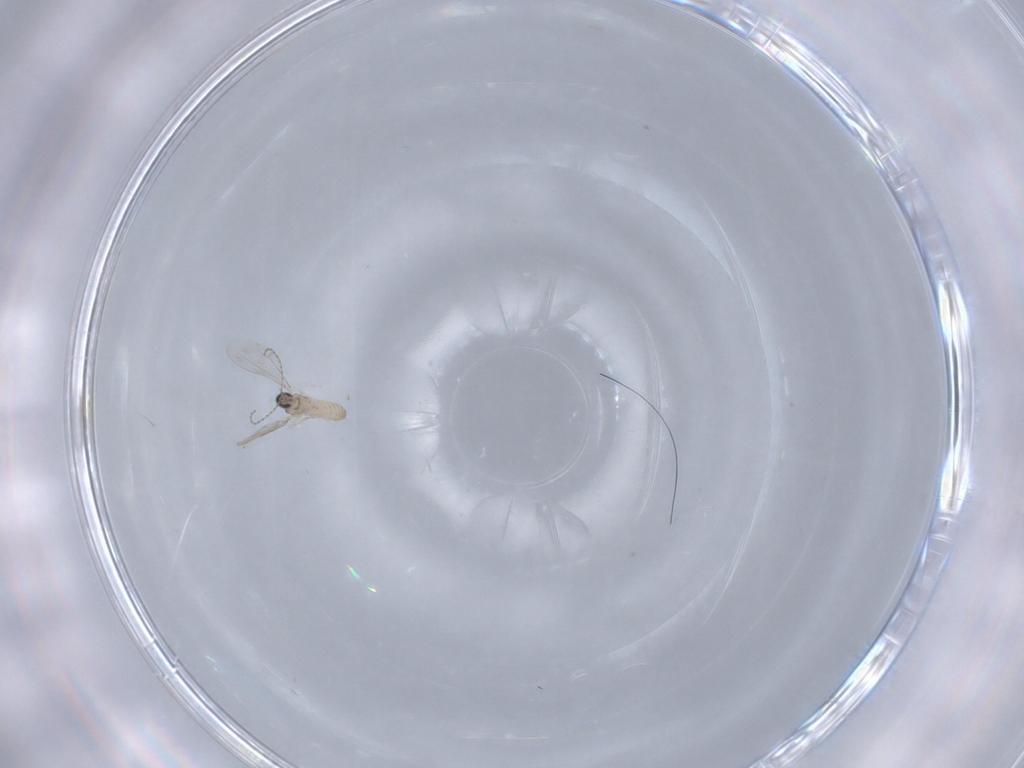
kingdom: Animalia
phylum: Arthropoda
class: Insecta
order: Diptera
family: Cecidomyiidae
